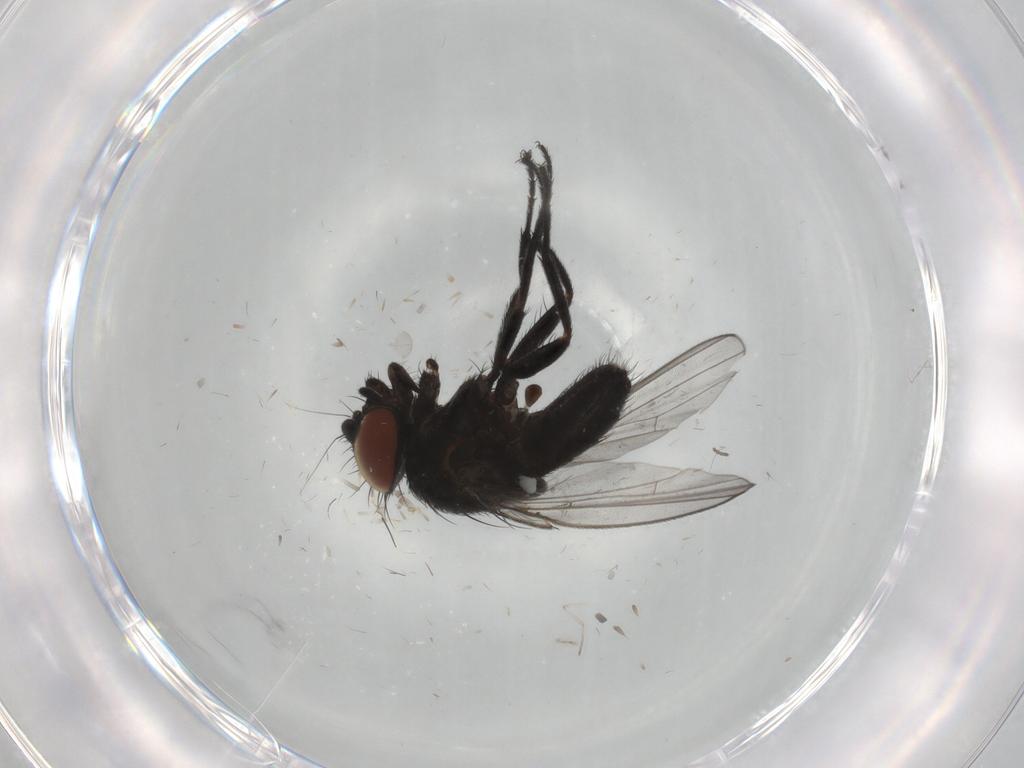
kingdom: Animalia
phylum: Arthropoda
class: Insecta
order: Diptera
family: Milichiidae
